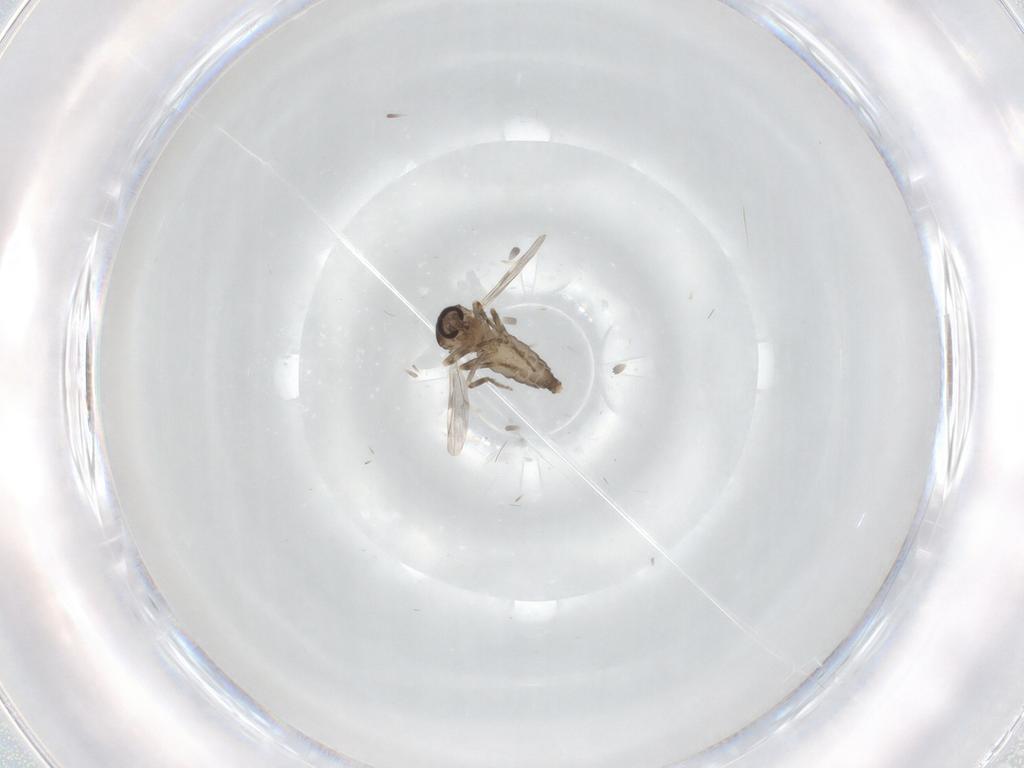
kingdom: Animalia
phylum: Arthropoda
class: Insecta
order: Diptera
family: Ceratopogonidae
